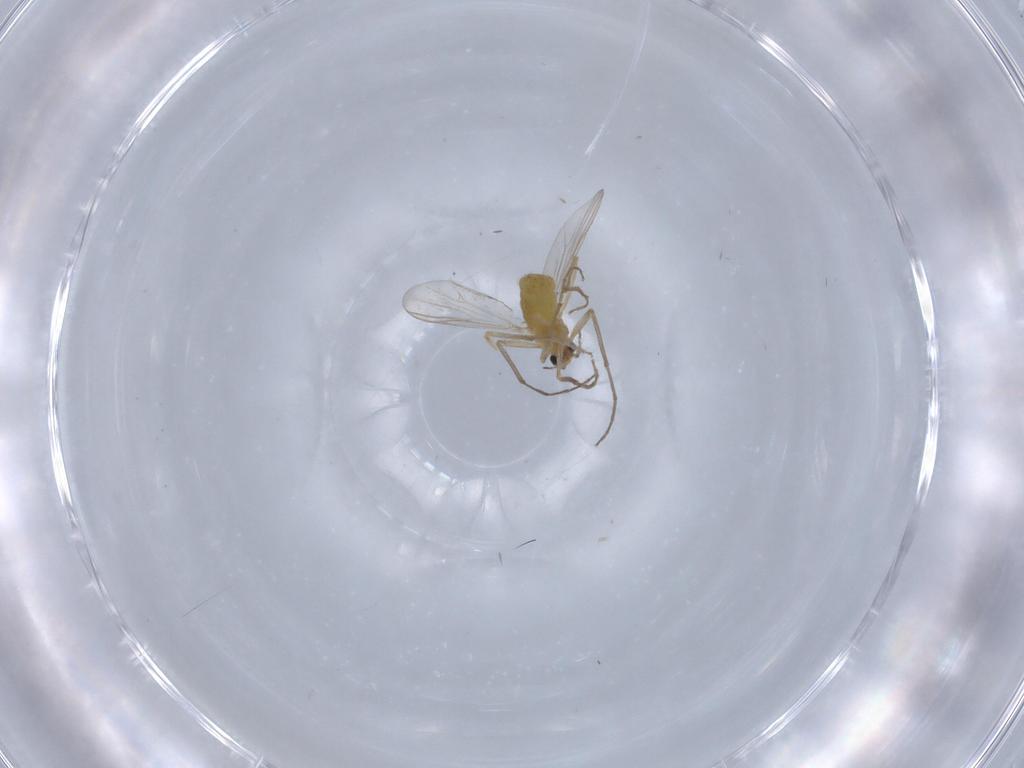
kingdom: Animalia
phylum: Arthropoda
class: Insecta
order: Diptera
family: Chironomidae
